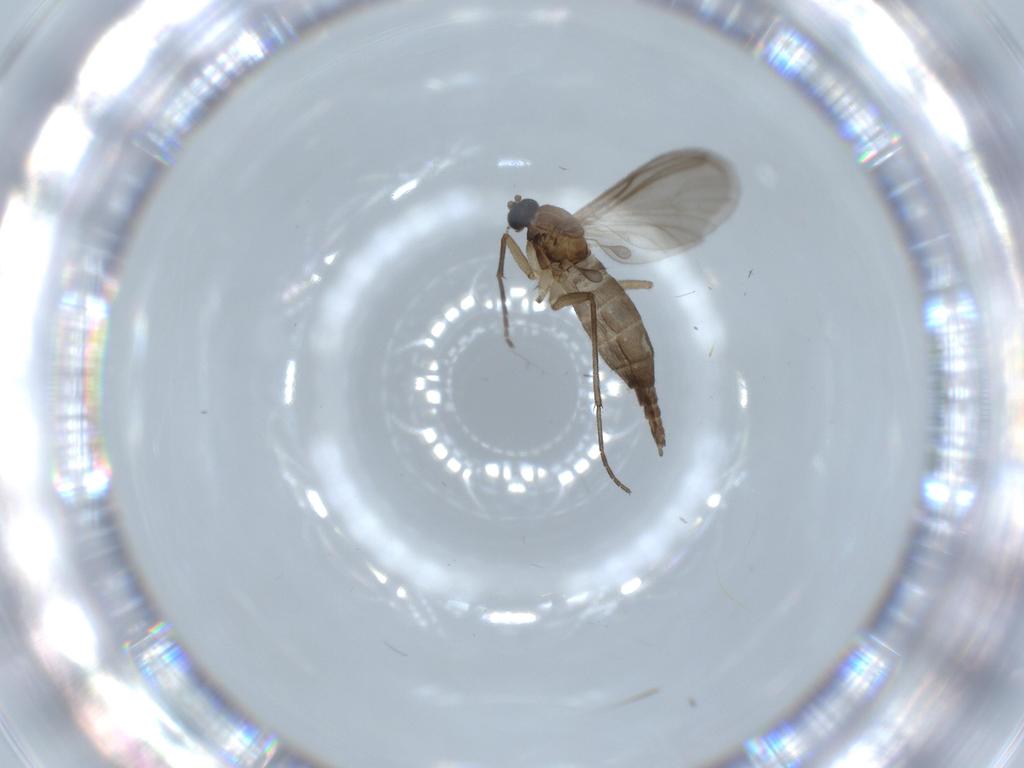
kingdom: Animalia
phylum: Arthropoda
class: Insecta
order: Diptera
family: Sciaridae
